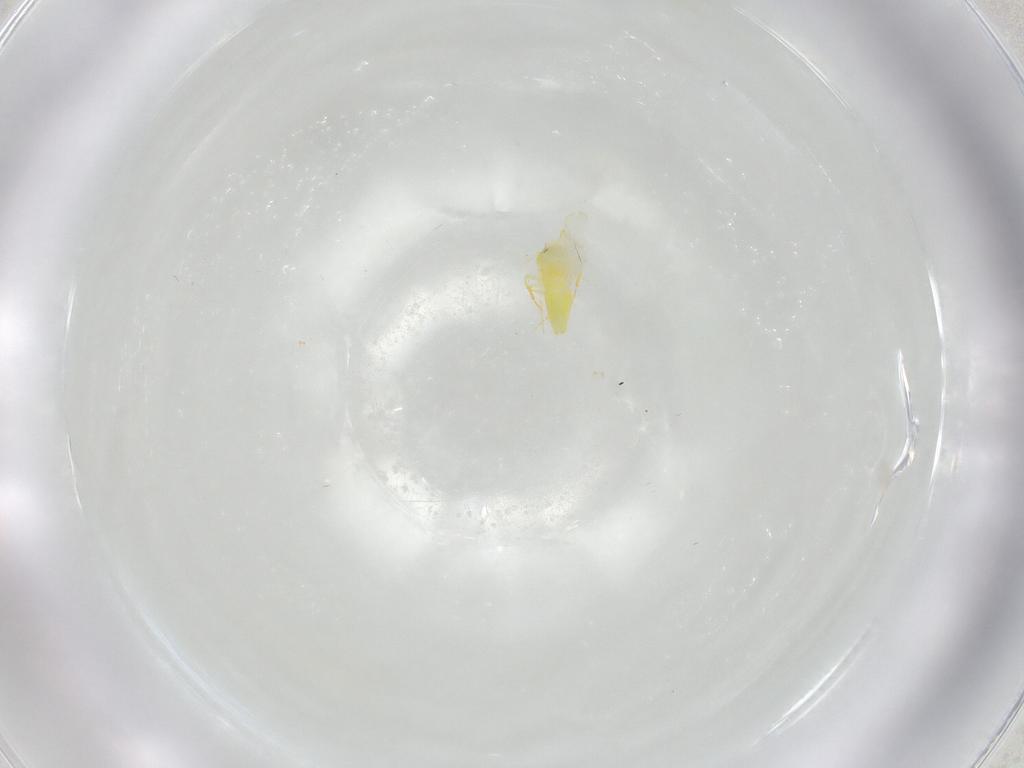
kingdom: Animalia
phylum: Arthropoda
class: Insecta
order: Hemiptera
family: Aleyrodidae
